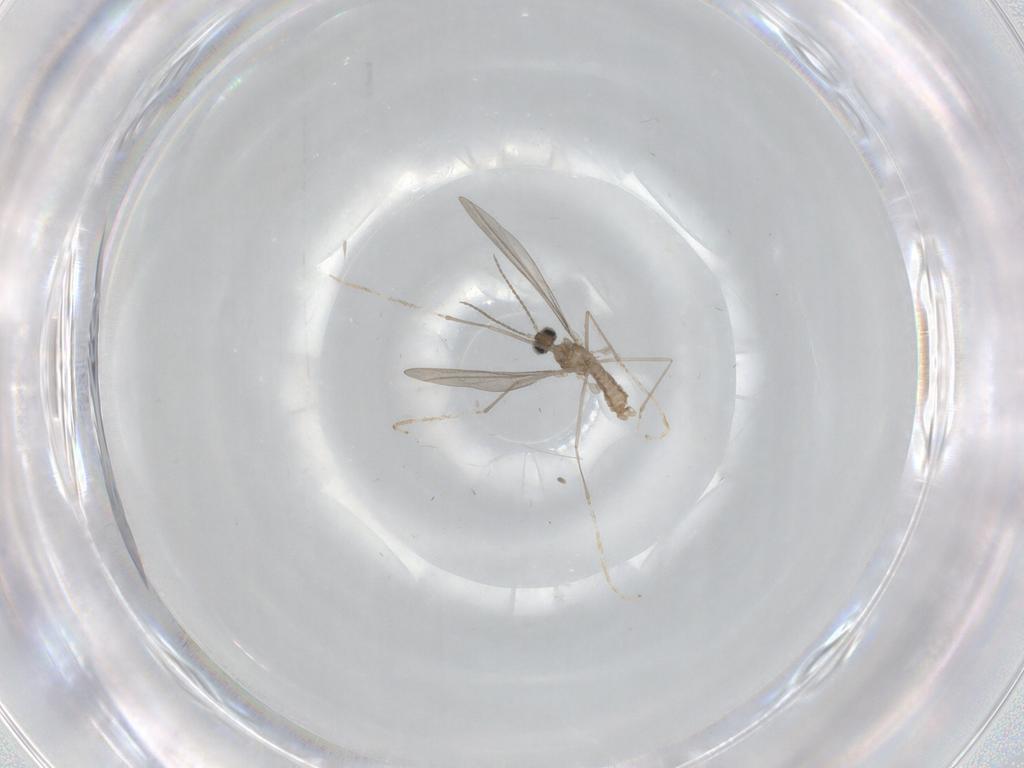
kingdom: Animalia
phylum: Arthropoda
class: Insecta
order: Diptera
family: Cecidomyiidae
